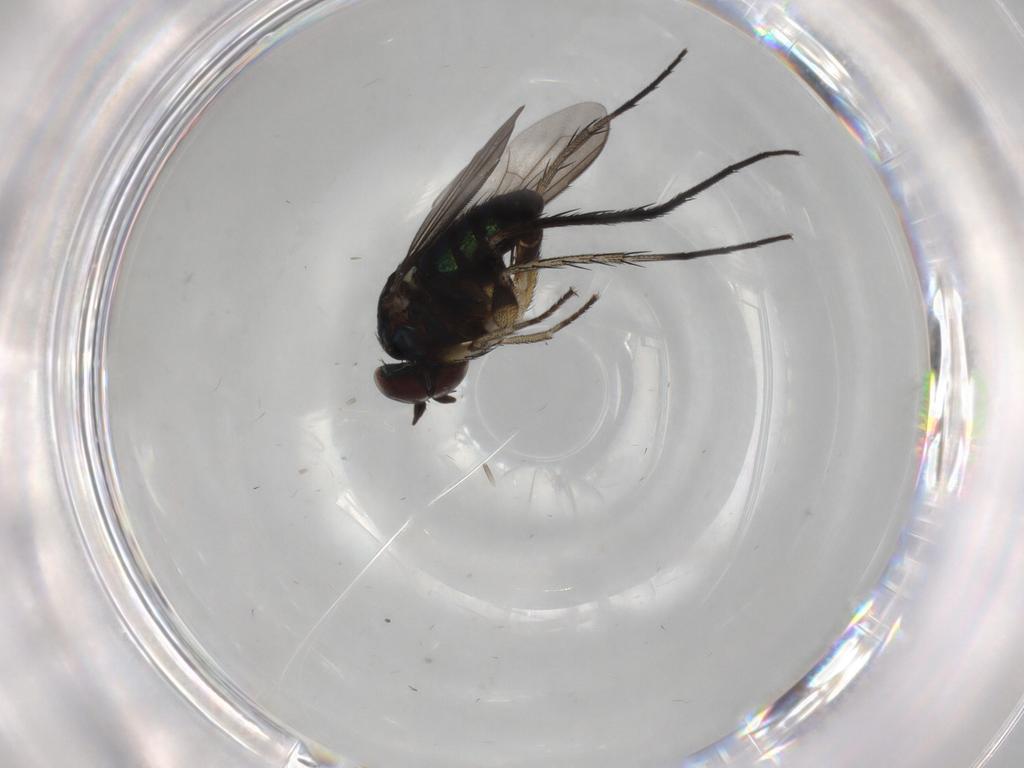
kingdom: Animalia
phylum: Arthropoda
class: Insecta
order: Diptera
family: Dolichopodidae
